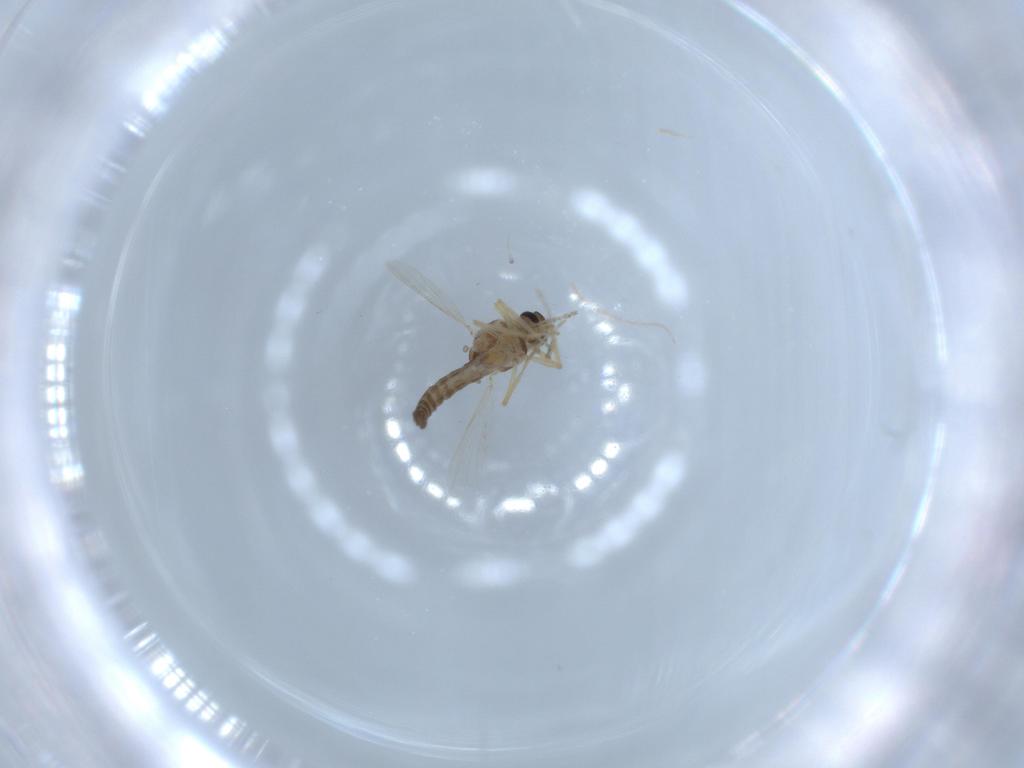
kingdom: Animalia
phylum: Arthropoda
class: Insecta
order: Diptera
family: Ceratopogonidae
